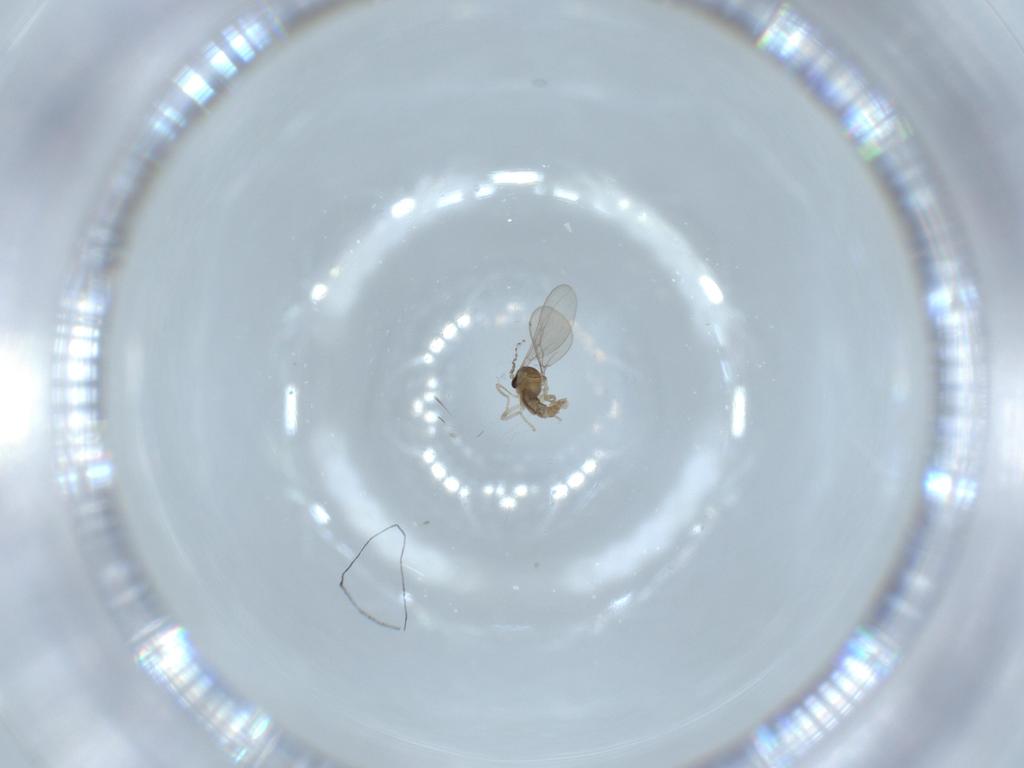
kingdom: Animalia
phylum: Arthropoda
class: Insecta
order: Diptera
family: Cecidomyiidae
